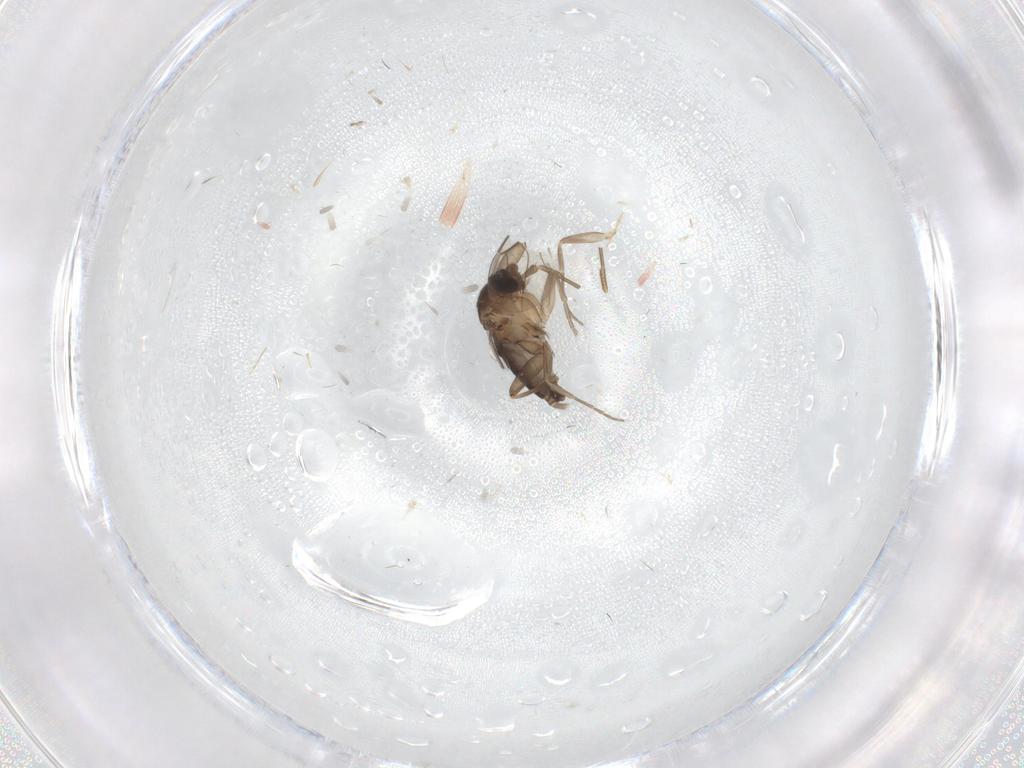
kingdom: Animalia
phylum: Arthropoda
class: Insecta
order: Diptera
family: Phoridae
